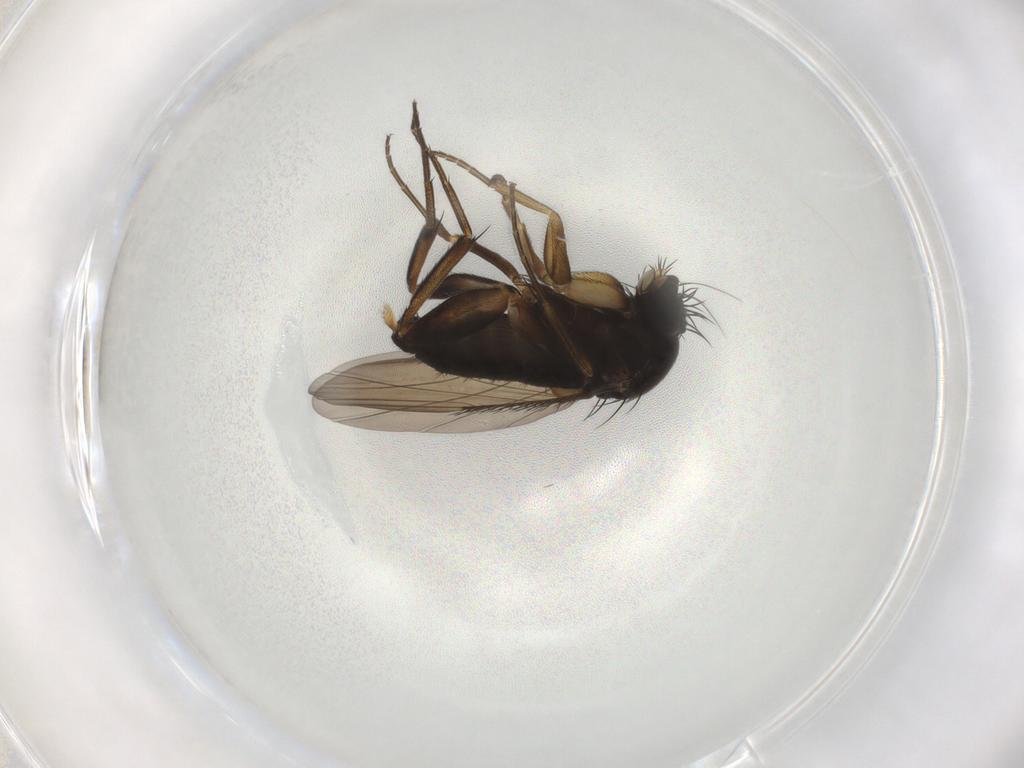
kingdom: Animalia
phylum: Arthropoda
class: Insecta
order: Diptera
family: Phoridae
